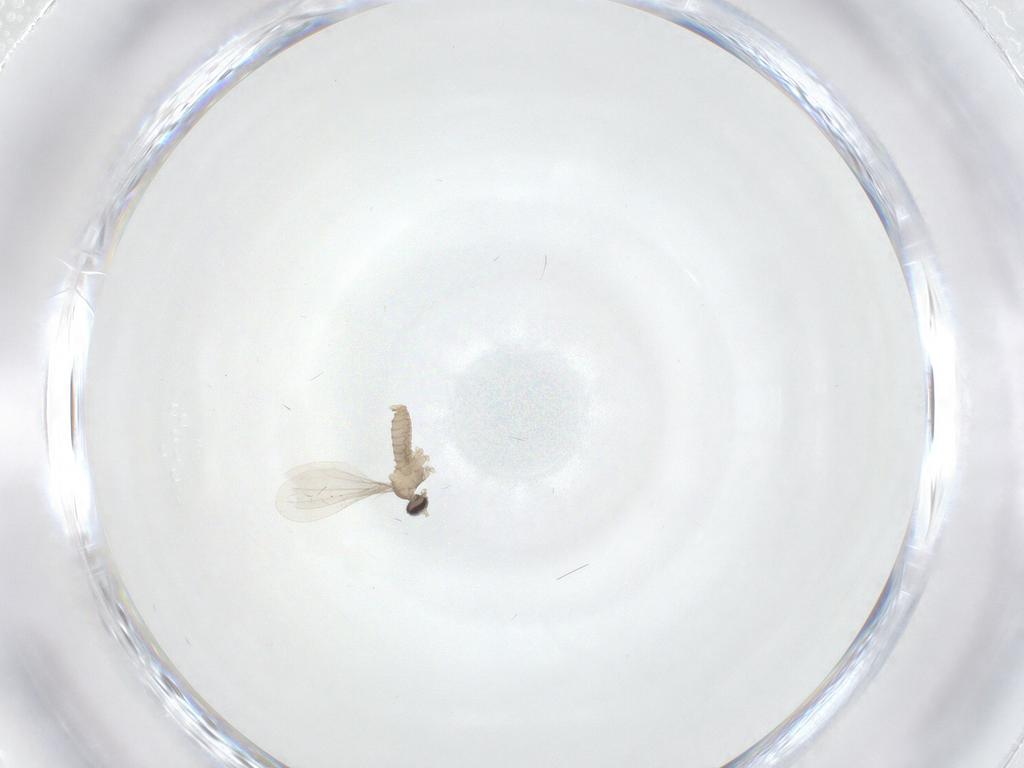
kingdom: Animalia
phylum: Arthropoda
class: Insecta
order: Diptera
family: Cecidomyiidae
